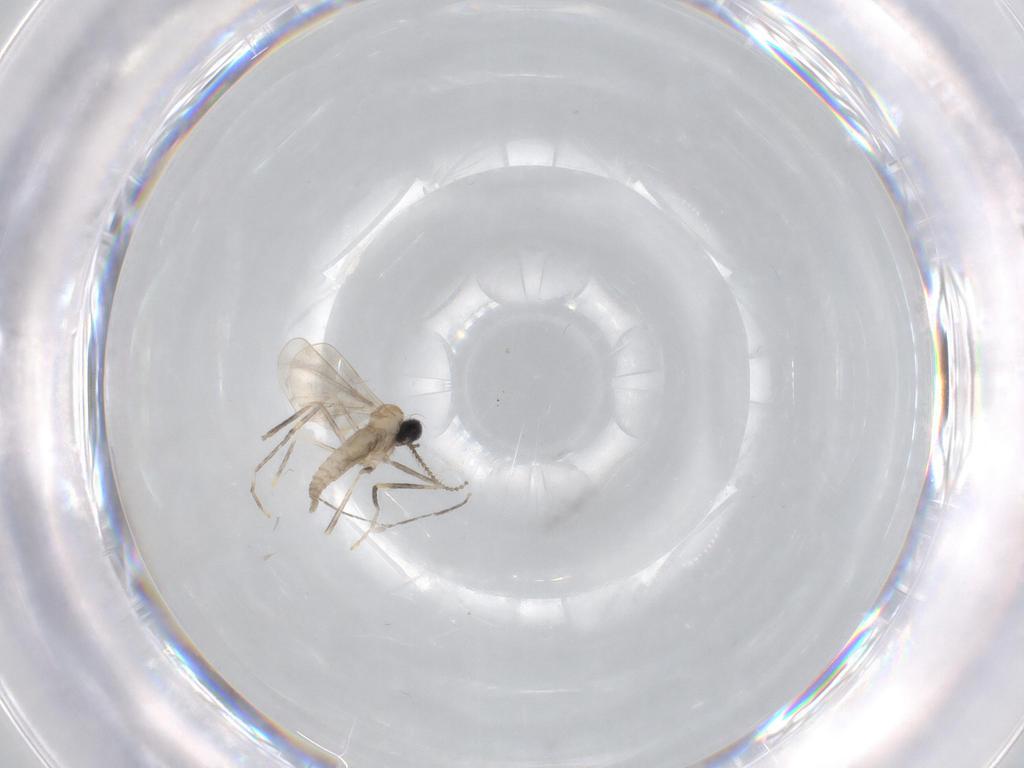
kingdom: Animalia
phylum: Arthropoda
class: Insecta
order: Diptera
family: Cecidomyiidae
